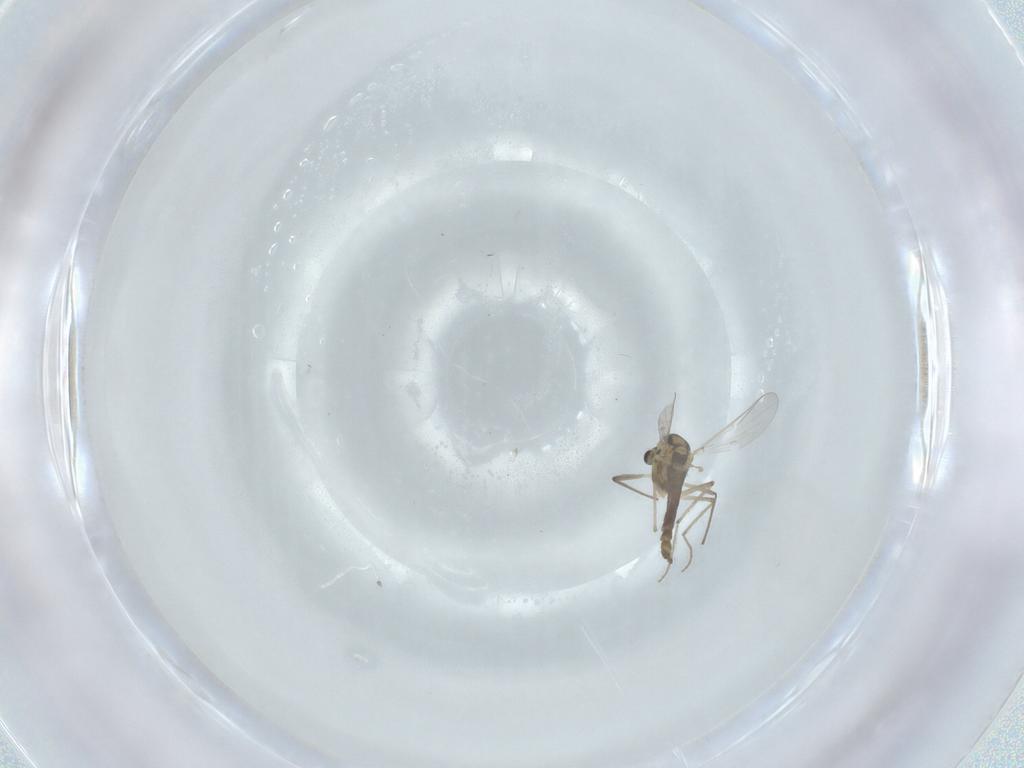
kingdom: Animalia
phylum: Arthropoda
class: Insecta
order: Diptera
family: Chironomidae
